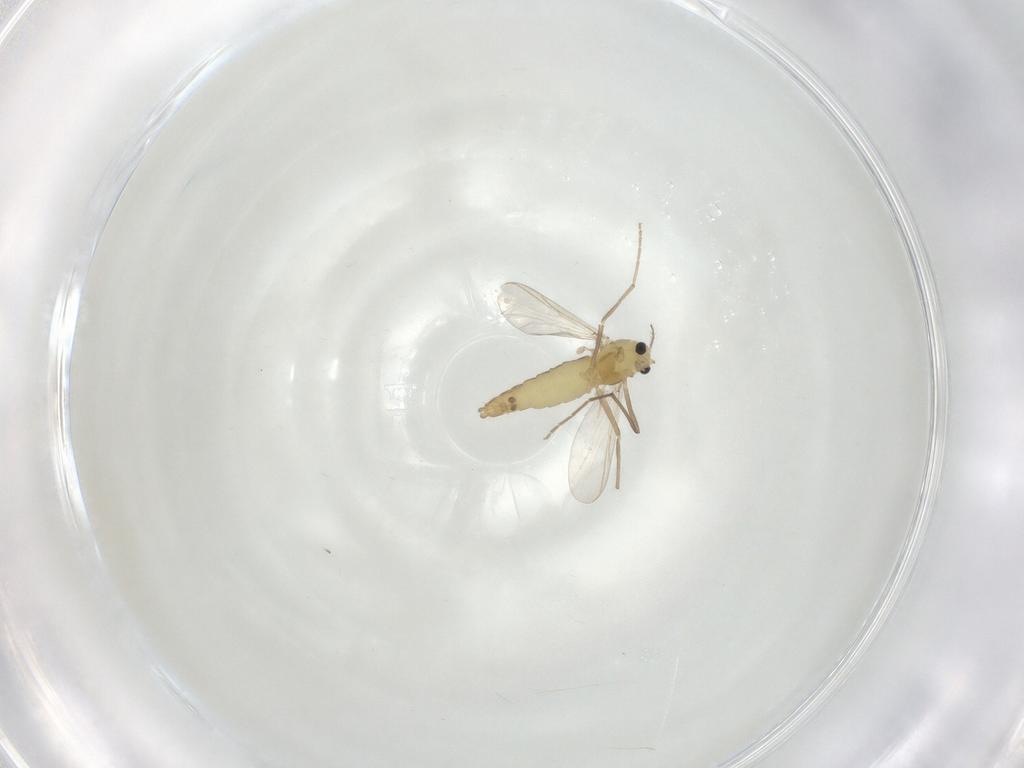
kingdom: Animalia
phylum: Arthropoda
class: Insecta
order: Diptera
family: Chironomidae
